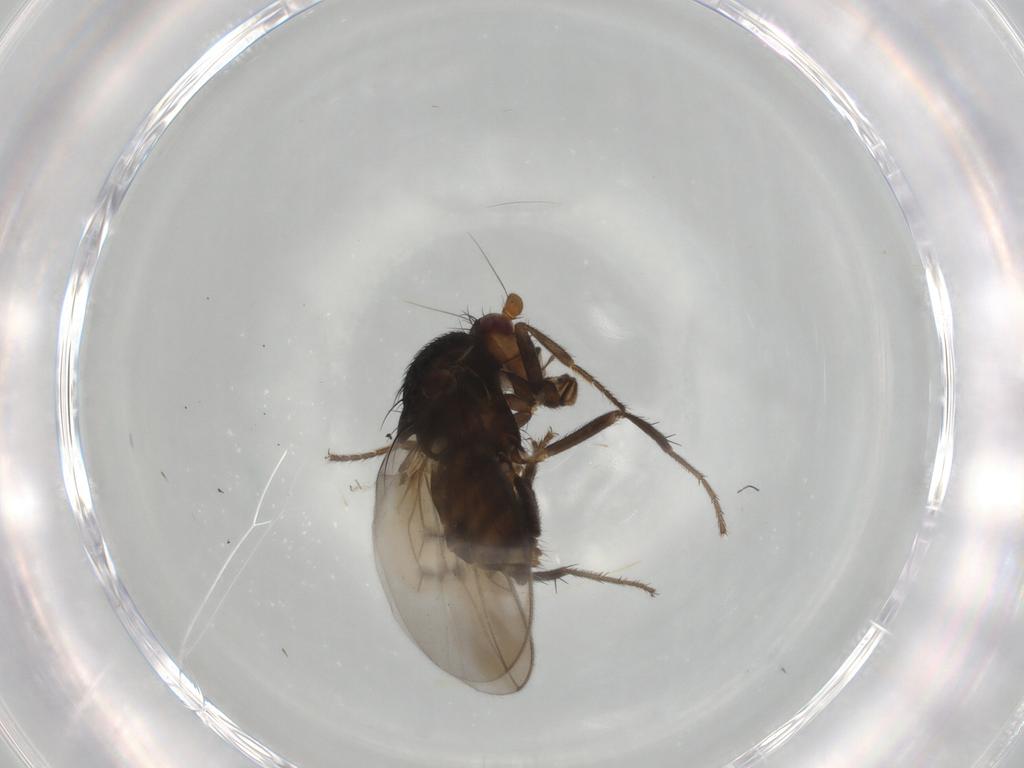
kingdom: Animalia
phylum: Arthropoda
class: Insecta
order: Diptera
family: Sphaeroceridae
